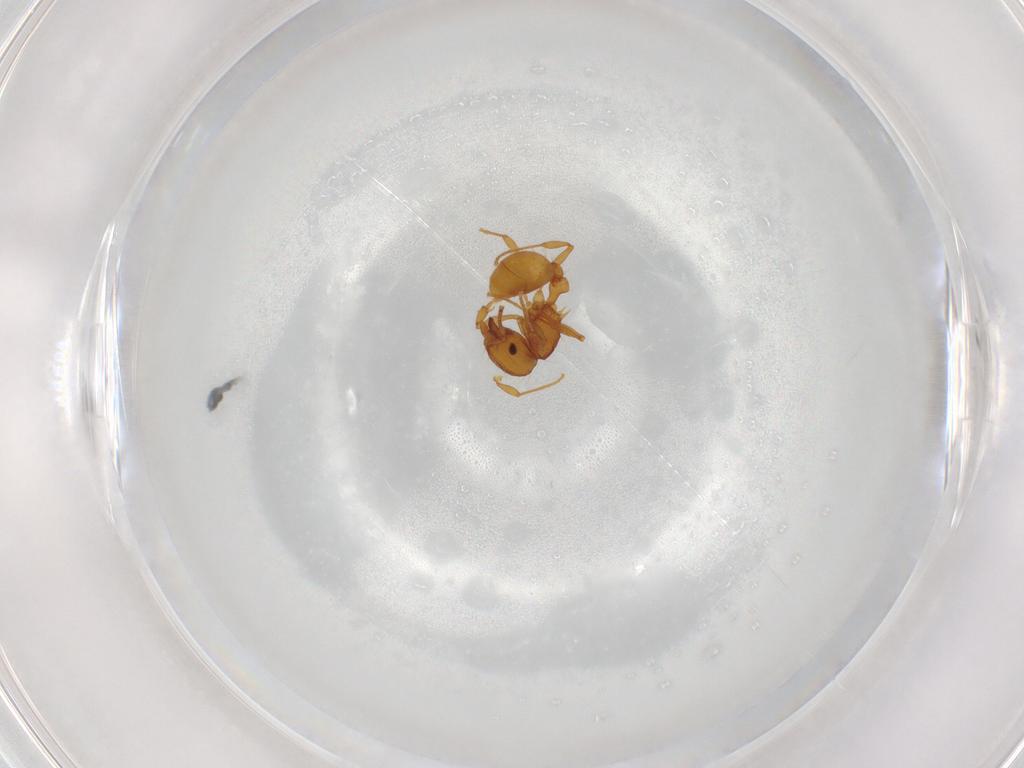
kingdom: Animalia
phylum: Arthropoda
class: Insecta
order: Hymenoptera
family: Formicidae
